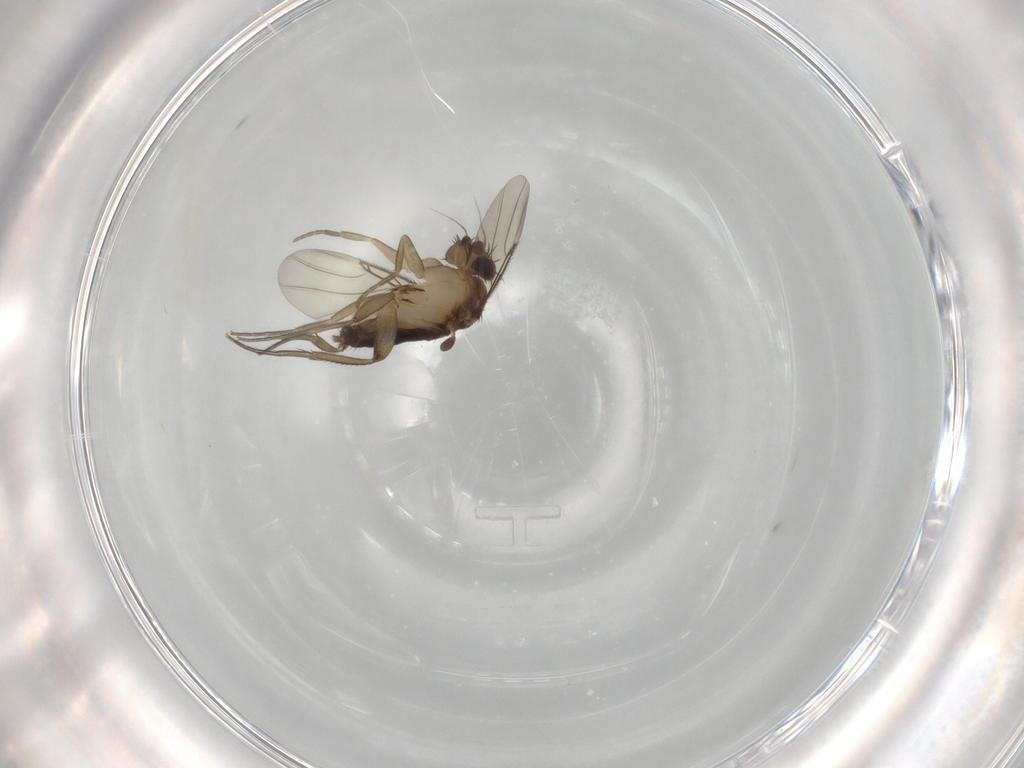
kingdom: Animalia
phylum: Arthropoda
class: Insecta
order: Diptera
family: Phoridae
